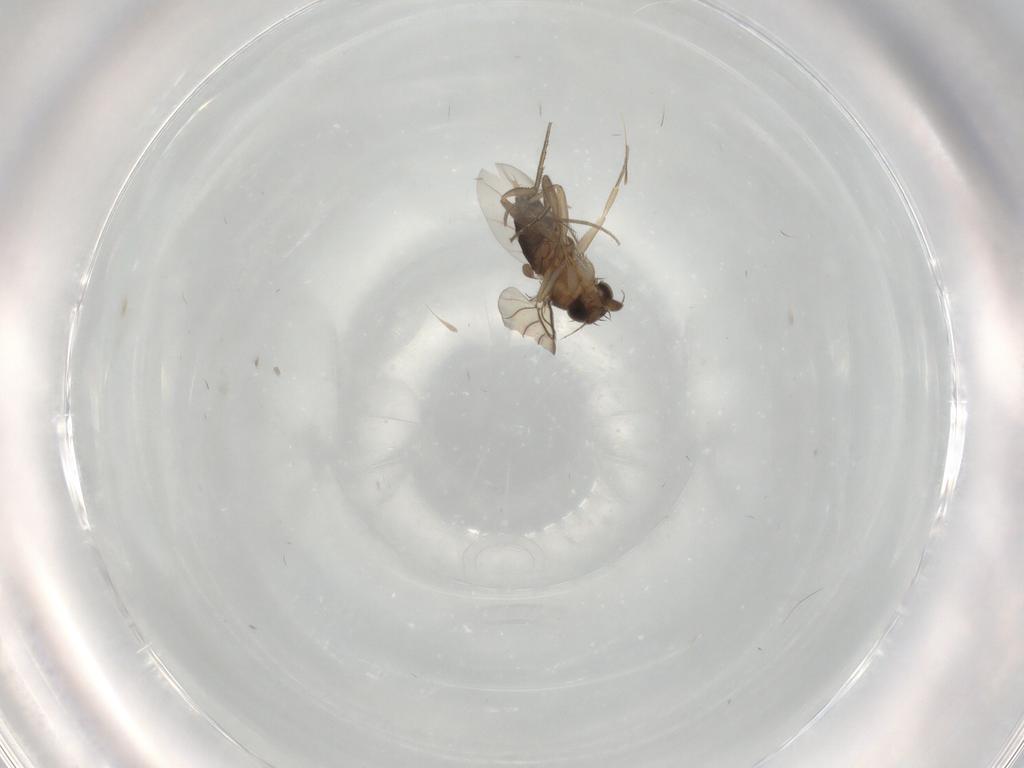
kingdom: Animalia
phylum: Arthropoda
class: Insecta
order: Diptera
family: Phoridae
